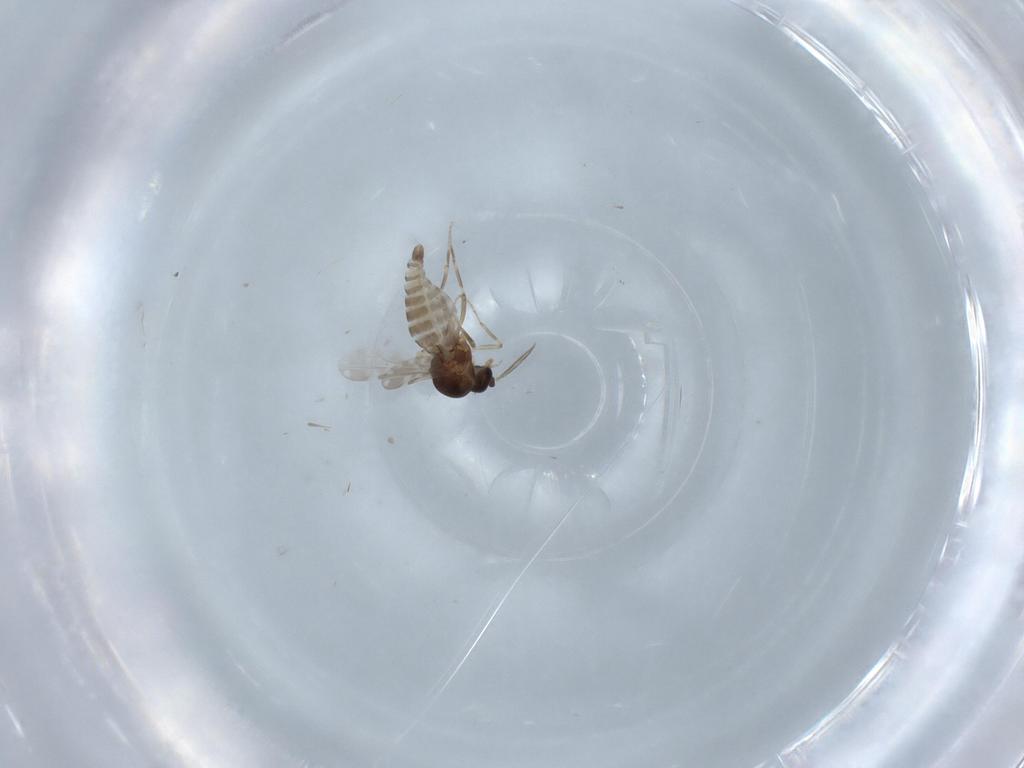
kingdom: Animalia
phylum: Arthropoda
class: Insecta
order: Diptera
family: Ceratopogonidae
